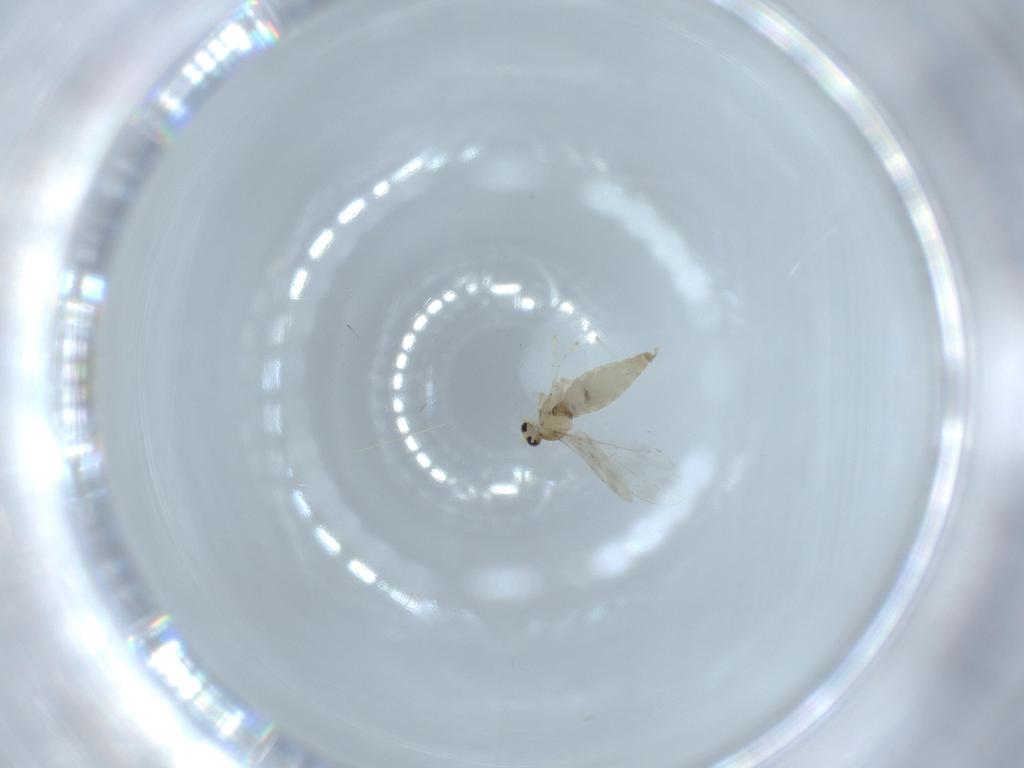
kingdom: Animalia
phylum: Arthropoda
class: Insecta
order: Diptera
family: Cecidomyiidae
